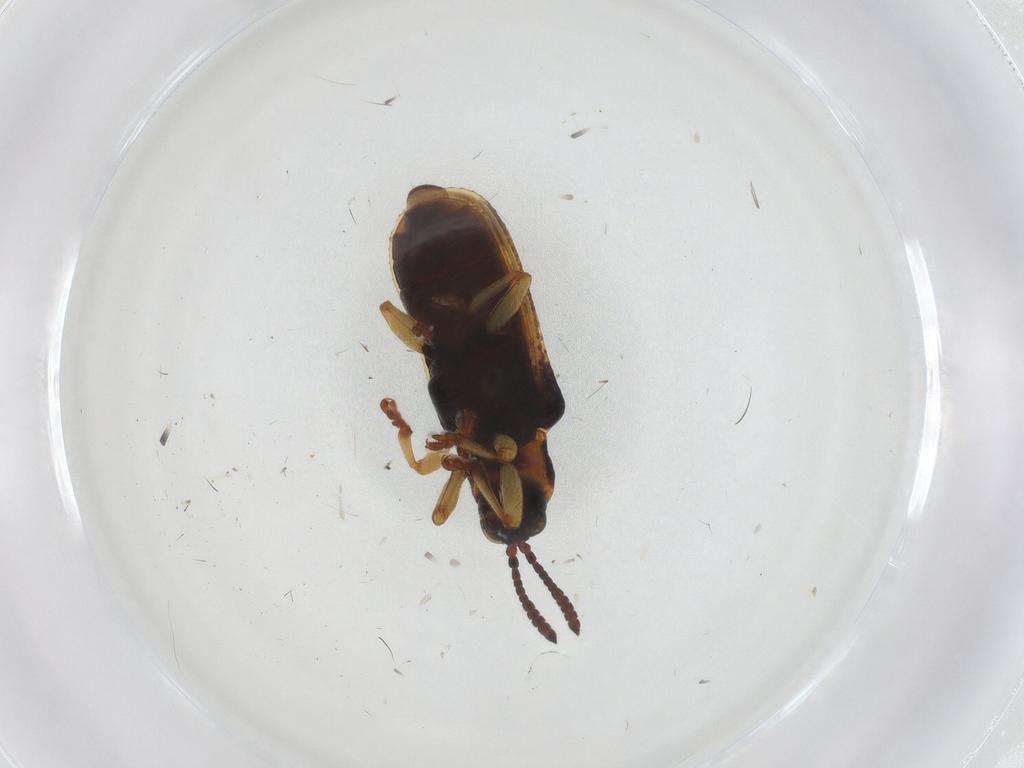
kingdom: Animalia
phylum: Arthropoda
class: Insecta
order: Coleoptera
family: Chrysomelidae
